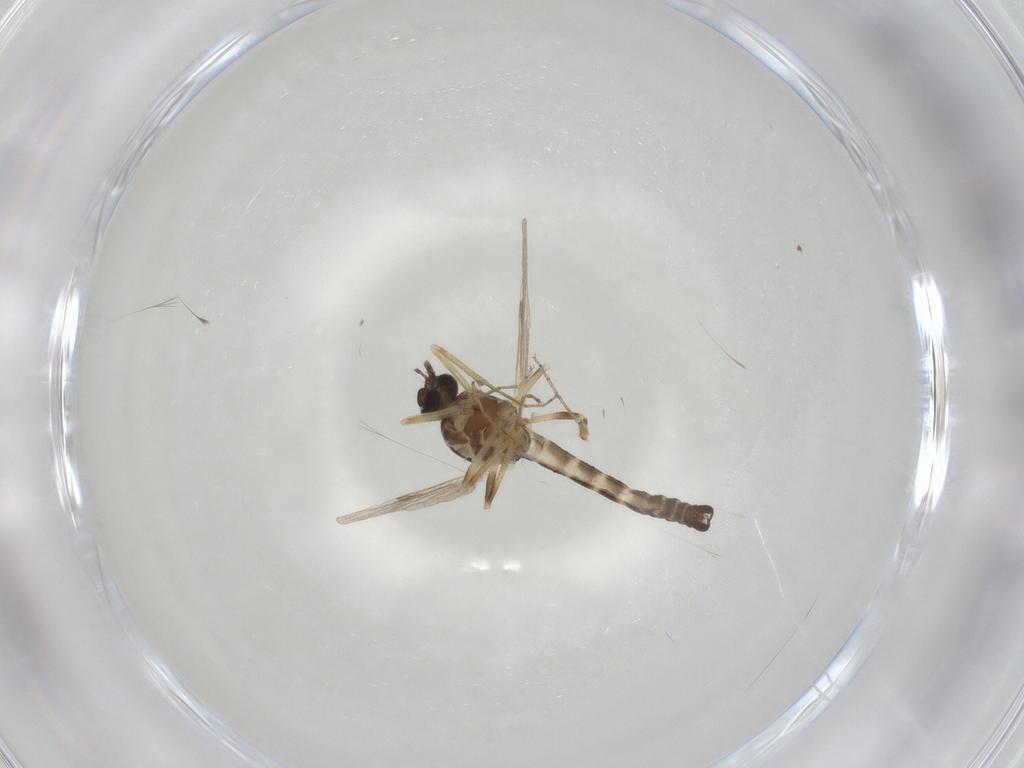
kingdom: Animalia
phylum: Arthropoda
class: Insecta
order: Diptera
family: Ceratopogonidae
